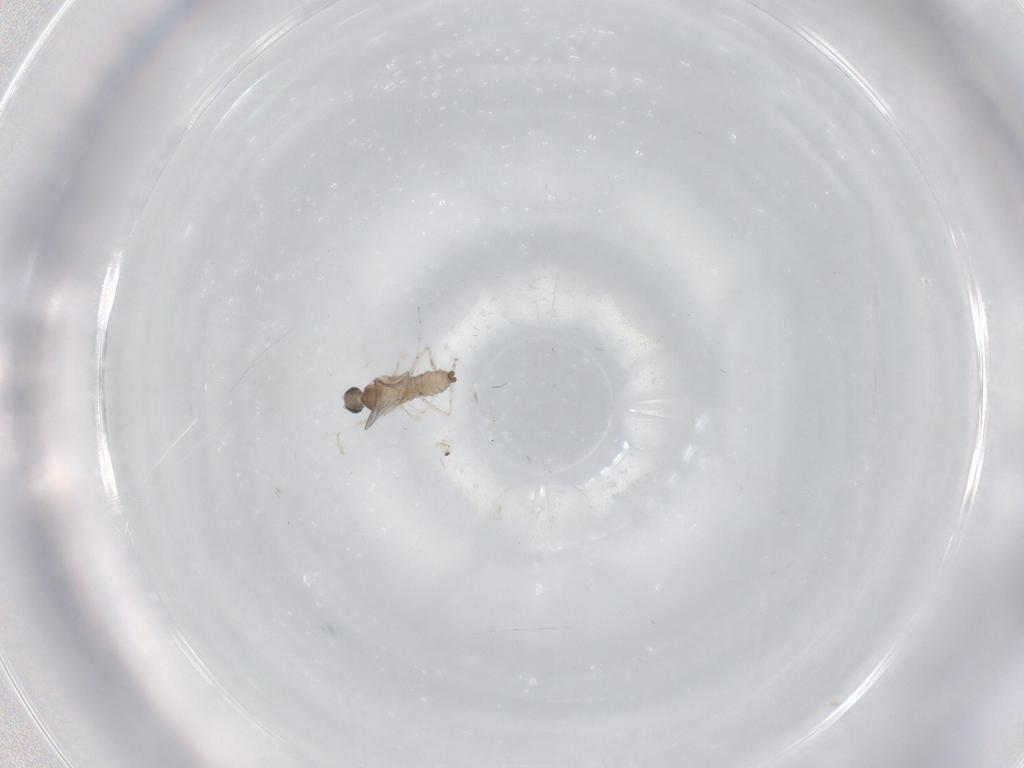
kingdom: Animalia
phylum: Arthropoda
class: Insecta
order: Diptera
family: Cecidomyiidae
